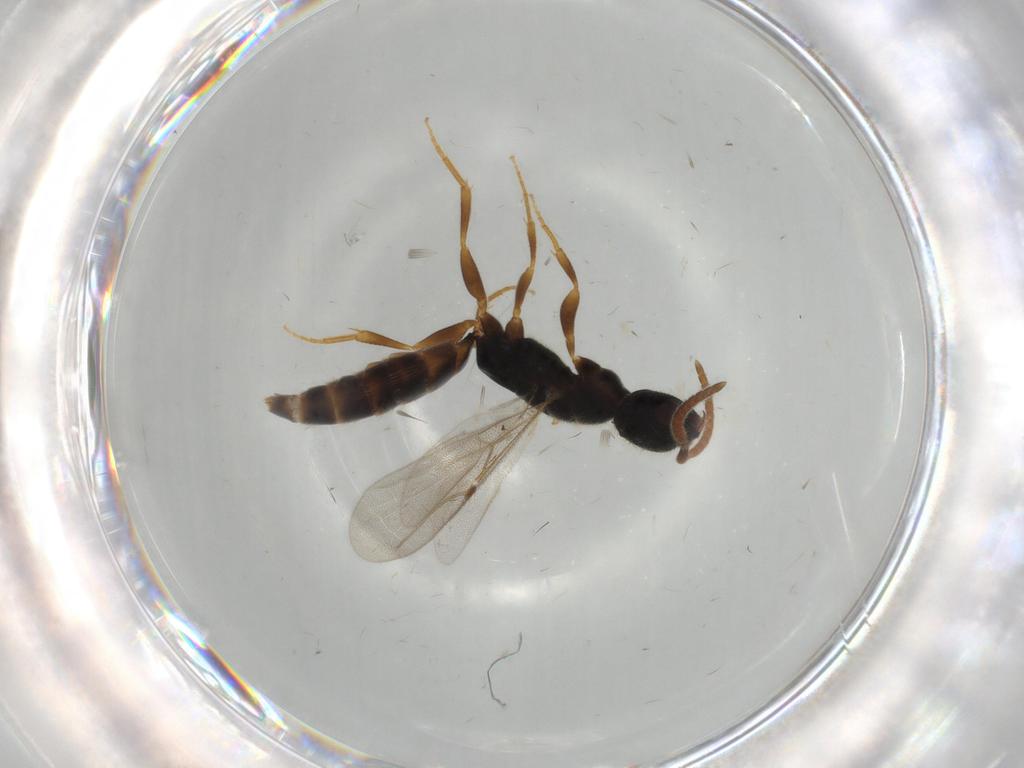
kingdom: Animalia
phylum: Arthropoda
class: Insecta
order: Hymenoptera
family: Bethylidae
